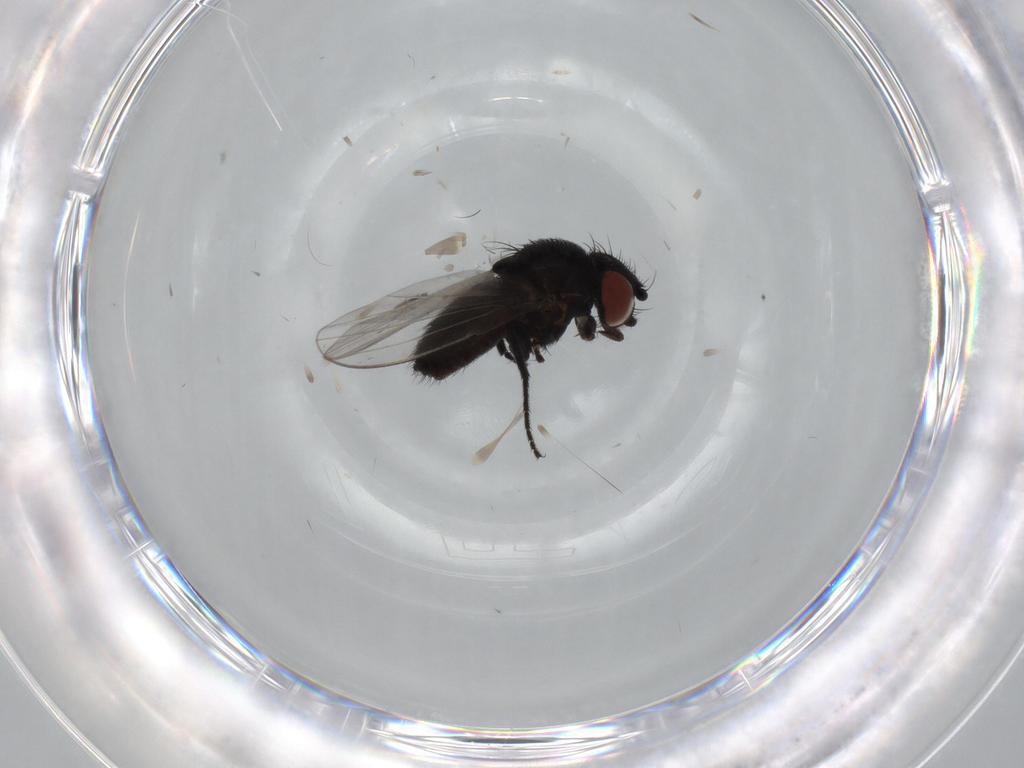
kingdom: Animalia
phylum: Arthropoda
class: Insecta
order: Diptera
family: Milichiidae
